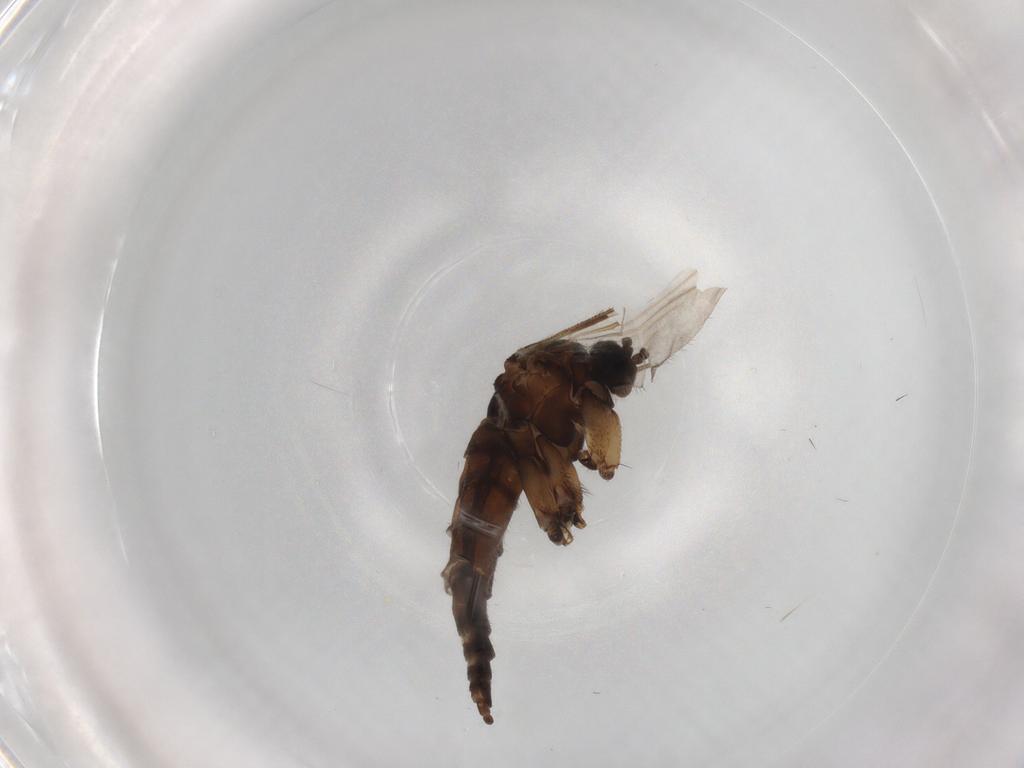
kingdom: Animalia
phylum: Arthropoda
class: Insecta
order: Diptera
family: Sciaridae
